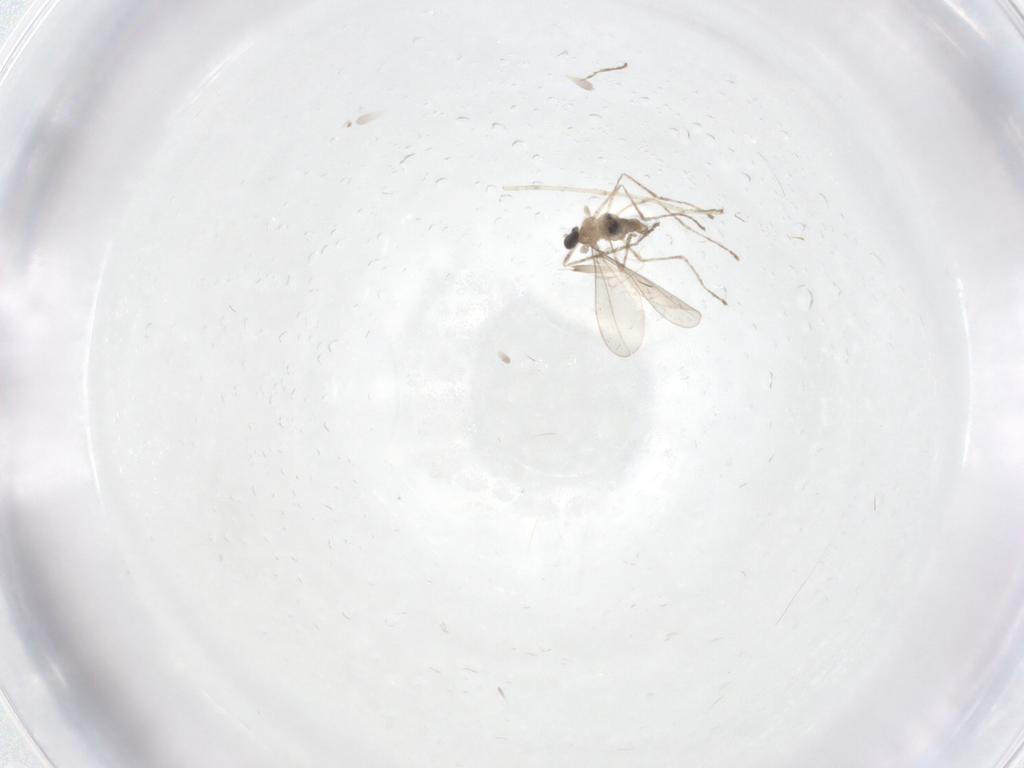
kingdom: Animalia
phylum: Arthropoda
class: Insecta
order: Diptera
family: Cecidomyiidae
